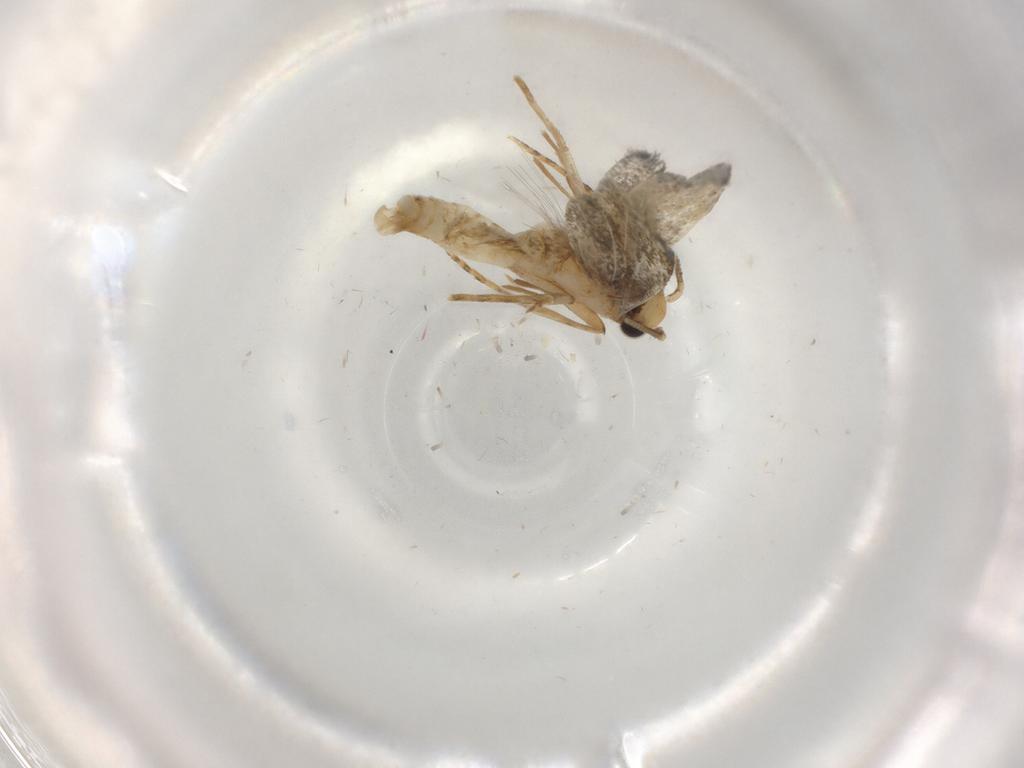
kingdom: Animalia
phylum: Arthropoda
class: Insecta
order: Lepidoptera
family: Tineidae
